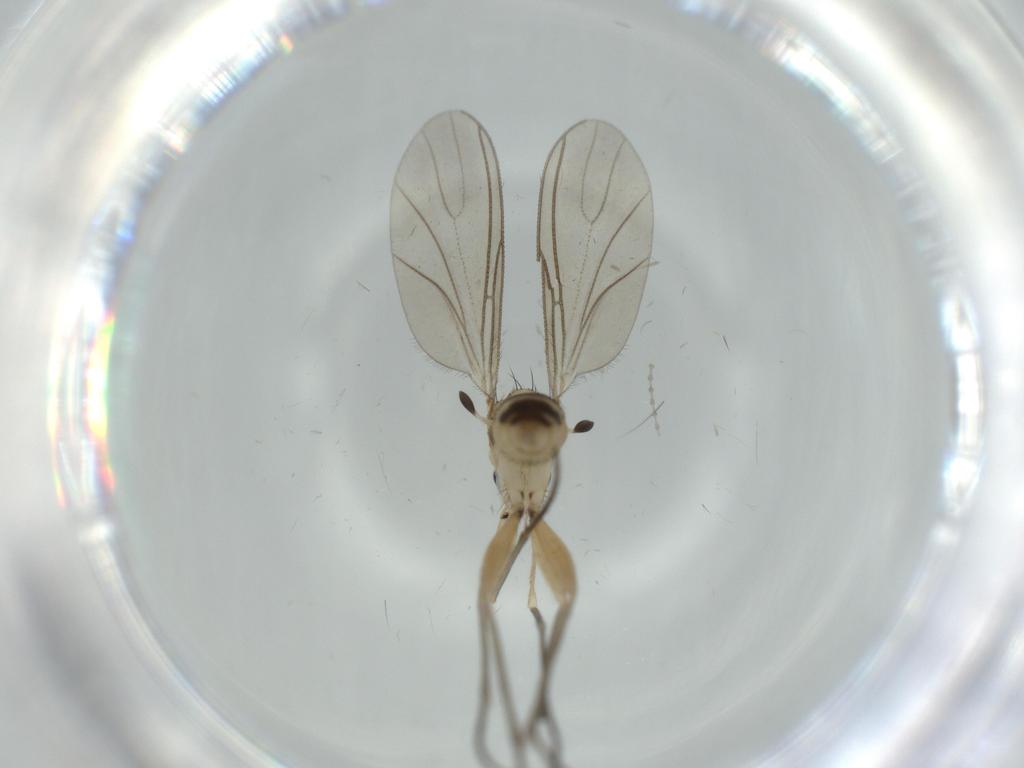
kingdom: Animalia
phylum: Arthropoda
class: Insecta
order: Diptera
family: Sciaridae
